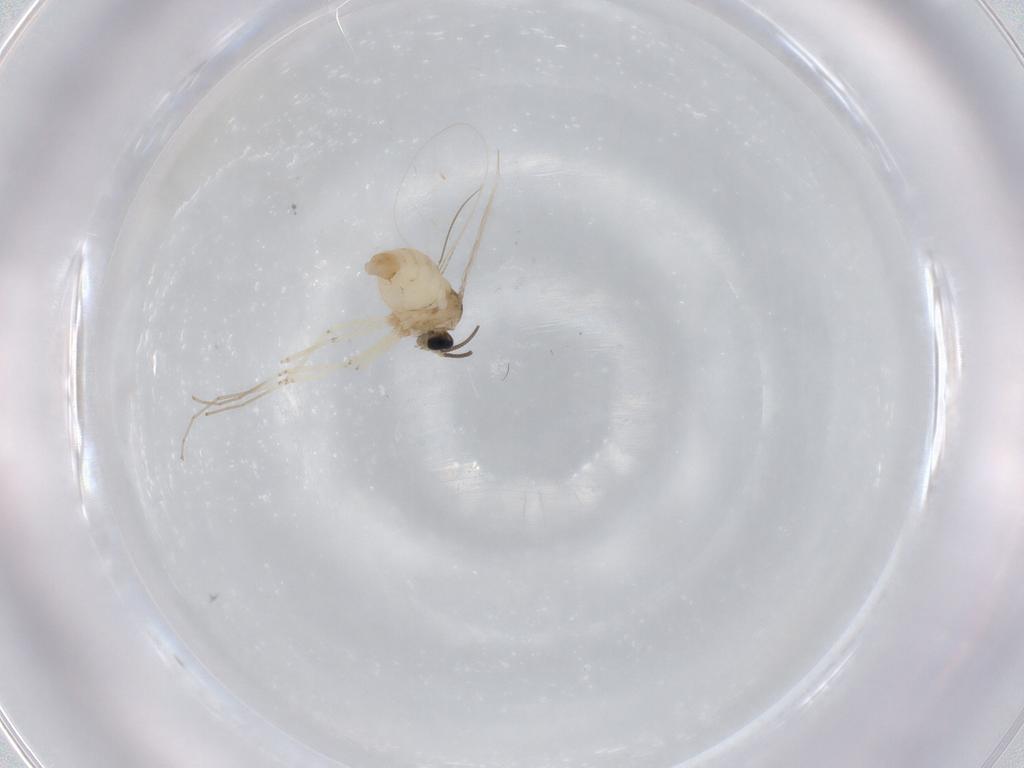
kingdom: Animalia
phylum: Arthropoda
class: Insecta
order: Diptera
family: Cecidomyiidae
